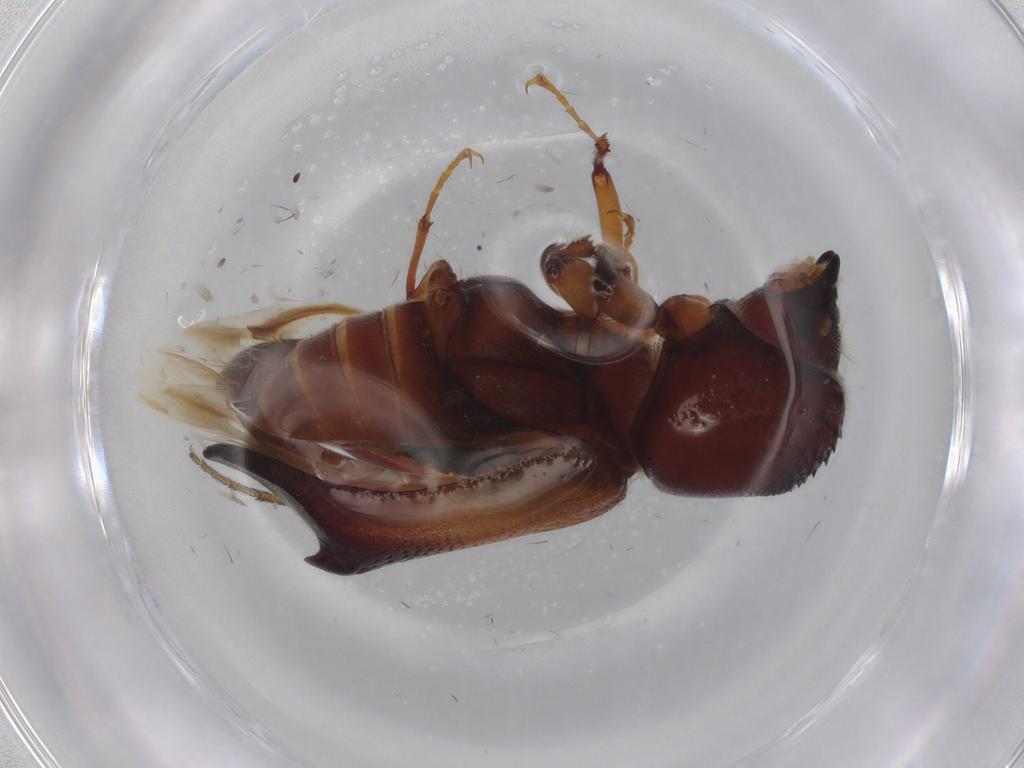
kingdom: Animalia
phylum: Arthropoda
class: Insecta
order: Coleoptera
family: Bostrichidae
